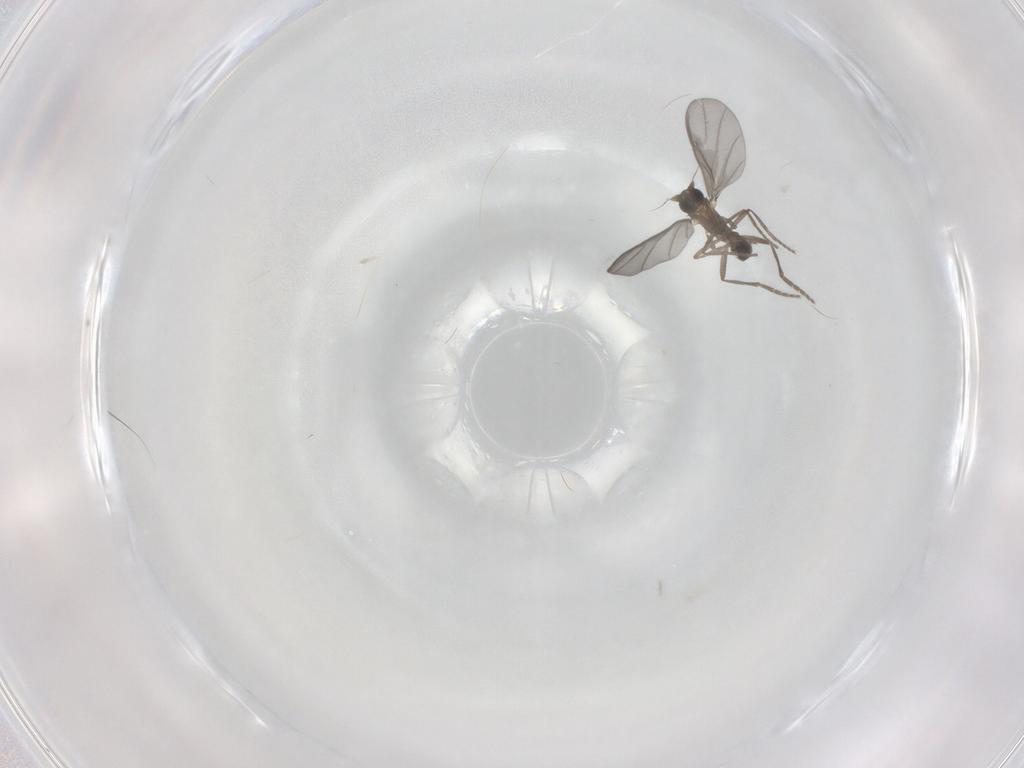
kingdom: Animalia
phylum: Arthropoda
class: Insecta
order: Diptera
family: Phoridae
